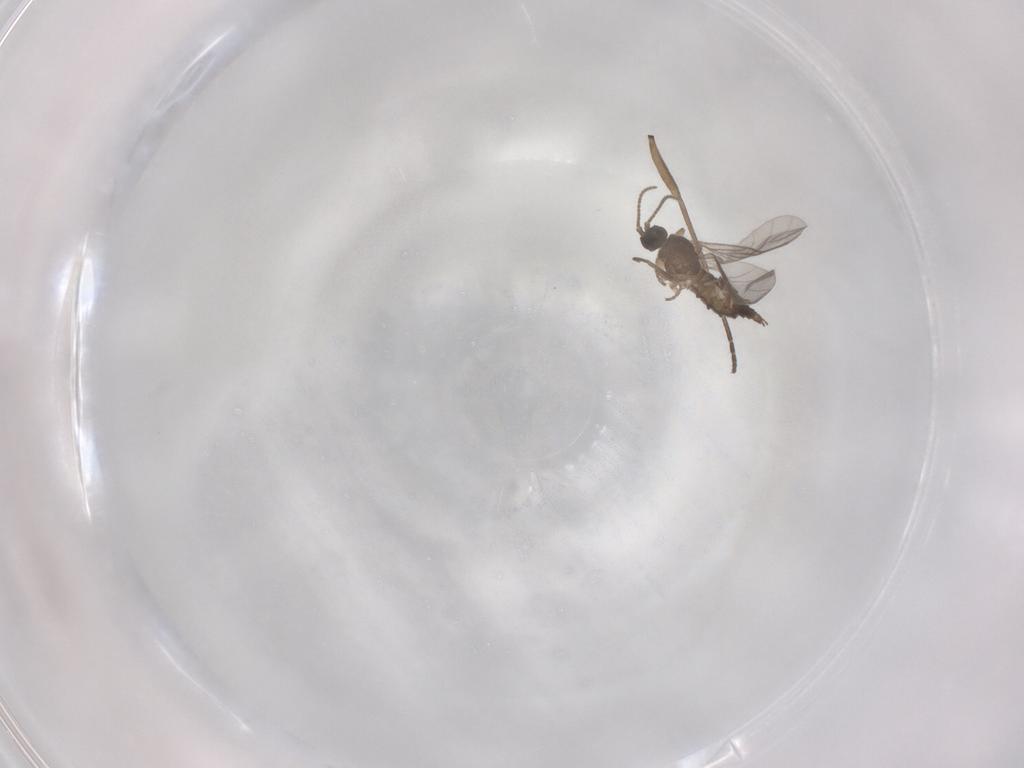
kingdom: Animalia
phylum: Arthropoda
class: Insecta
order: Diptera
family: Sciaridae
